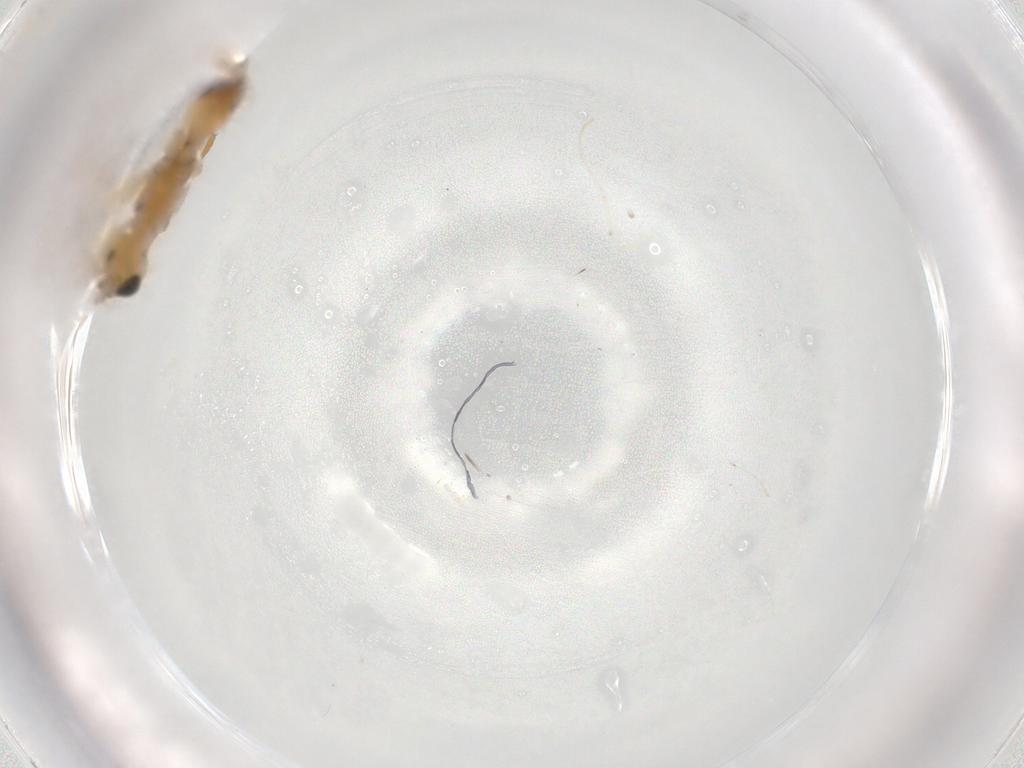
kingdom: Animalia
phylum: Arthropoda
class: Insecta
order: Hymenoptera
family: Braconidae
